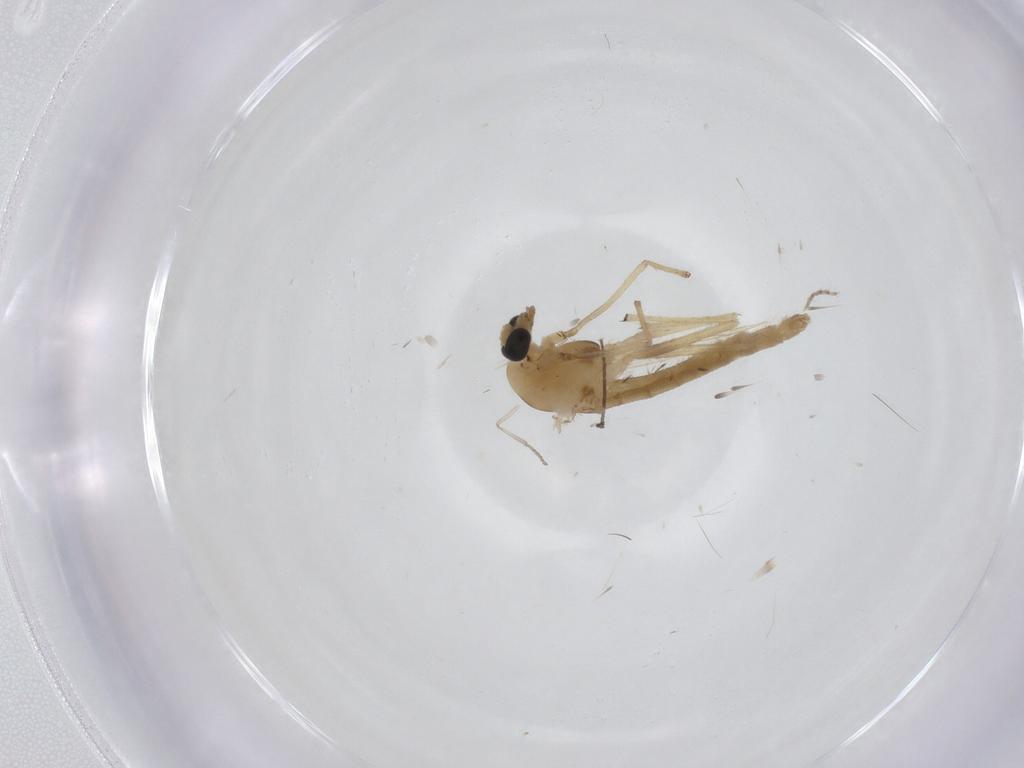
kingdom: Animalia
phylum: Arthropoda
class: Insecta
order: Diptera
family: Chironomidae
